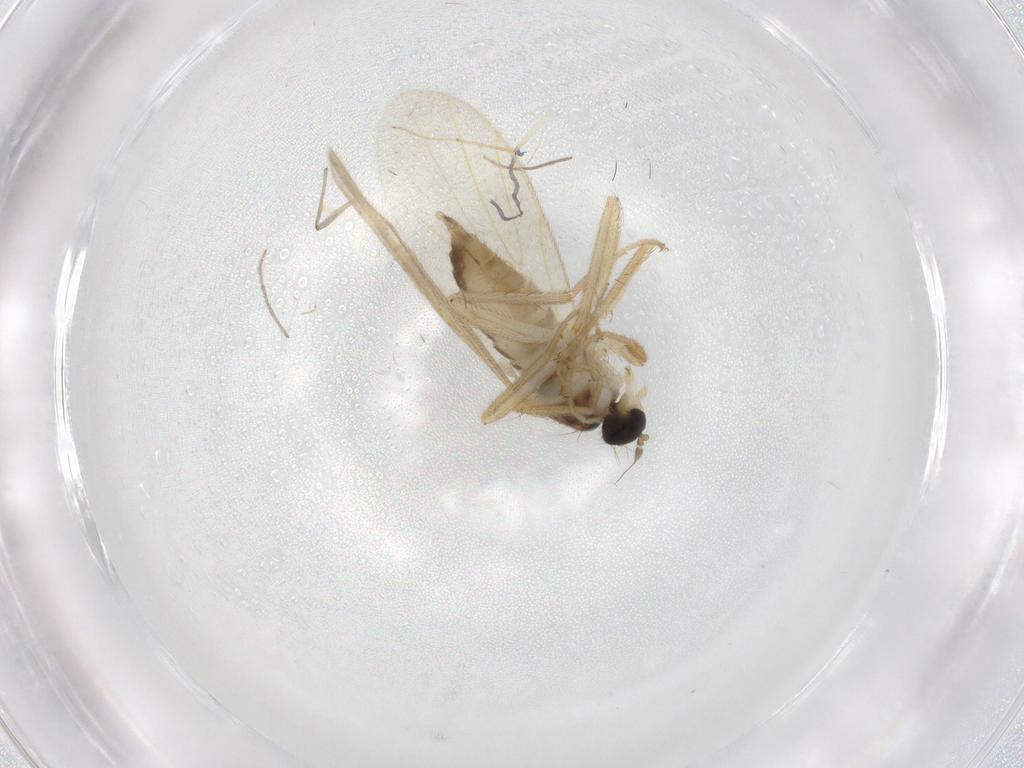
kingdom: Animalia
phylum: Arthropoda
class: Insecta
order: Diptera
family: Hybotidae
